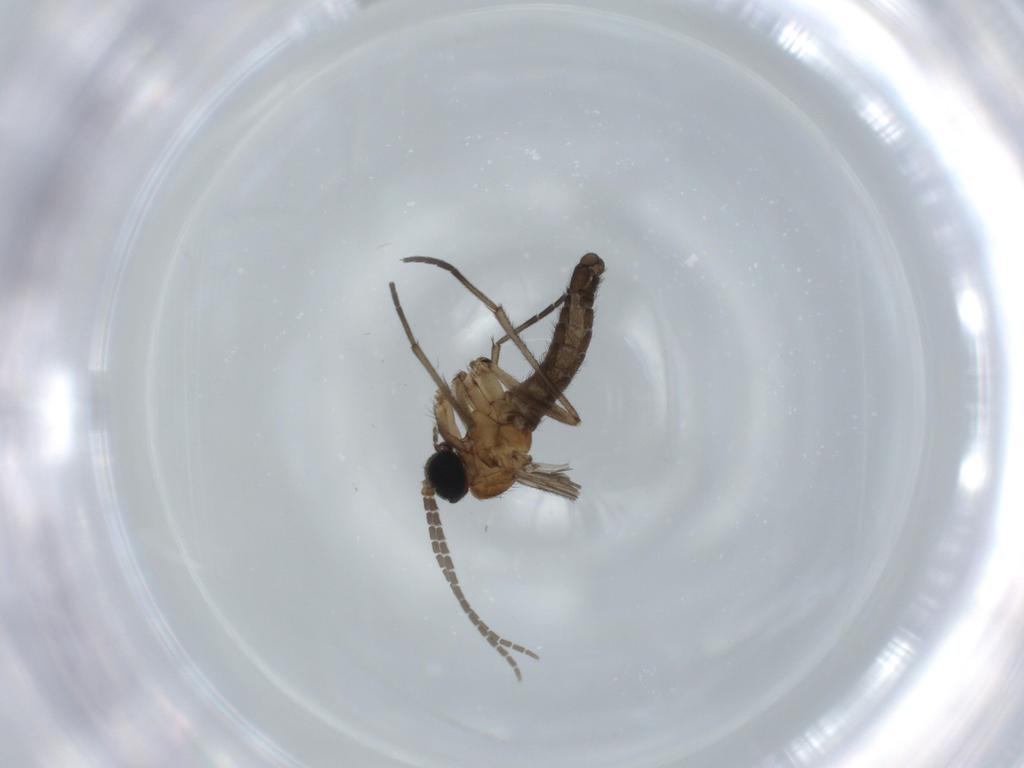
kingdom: Animalia
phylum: Arthropoda
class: Insecta
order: Diptera
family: Sciaridae
